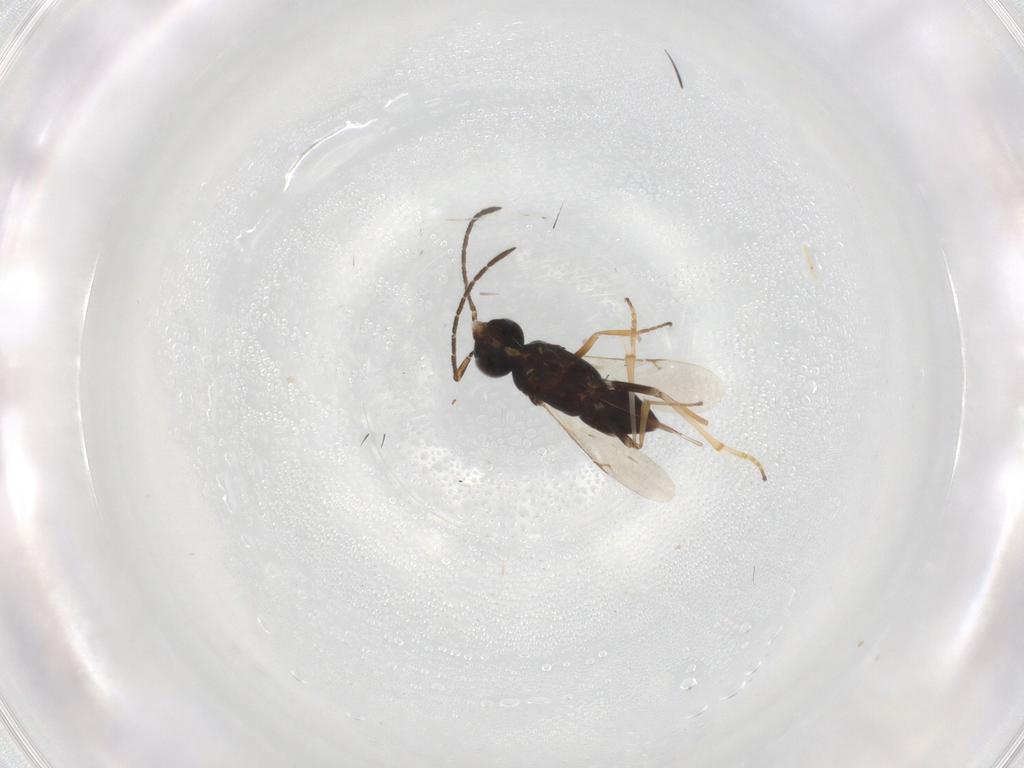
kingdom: Animalia
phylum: Arthropoda
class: Insecta
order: Hymenoptera
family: Encyrtidae
